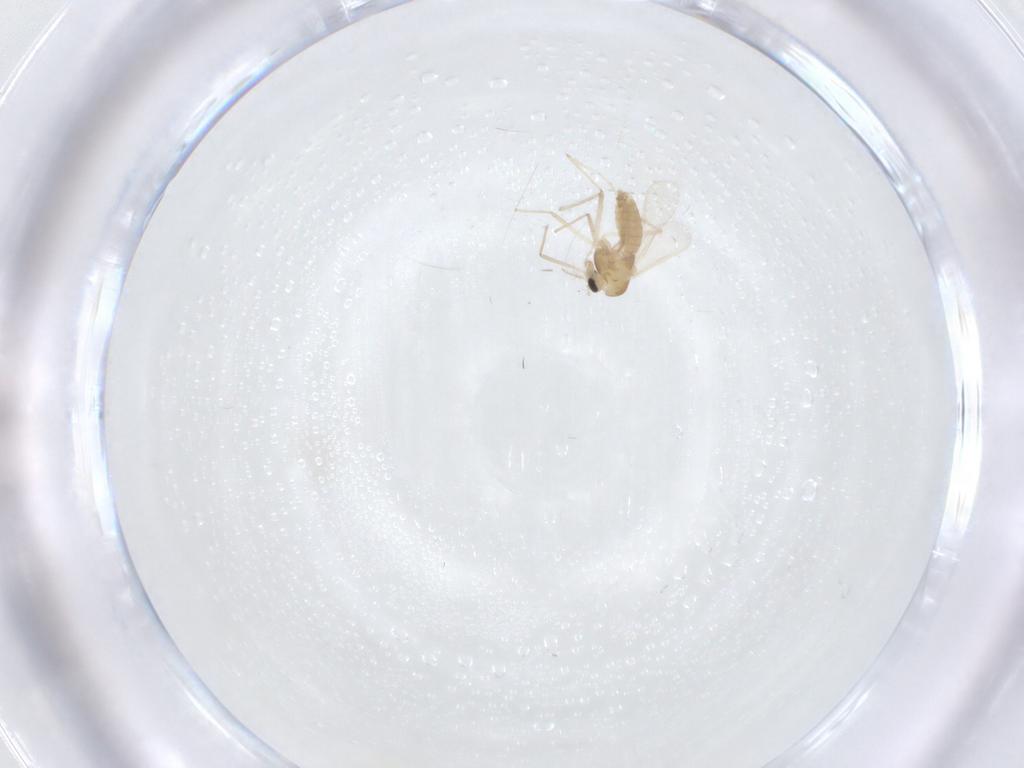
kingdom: Animalia
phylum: Arthropoda
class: Insecta
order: Diptera
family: Chironomidae
